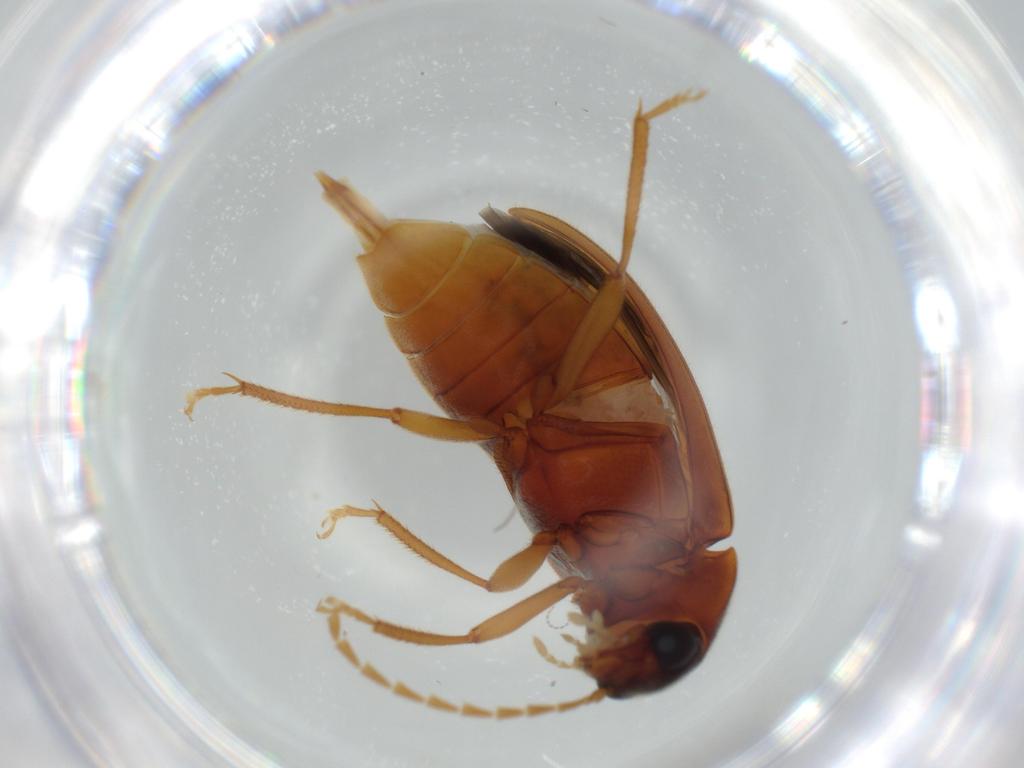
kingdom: Animalia
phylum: Arthropoda
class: Insecta
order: Coleoptera
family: Ptilodactylidae
